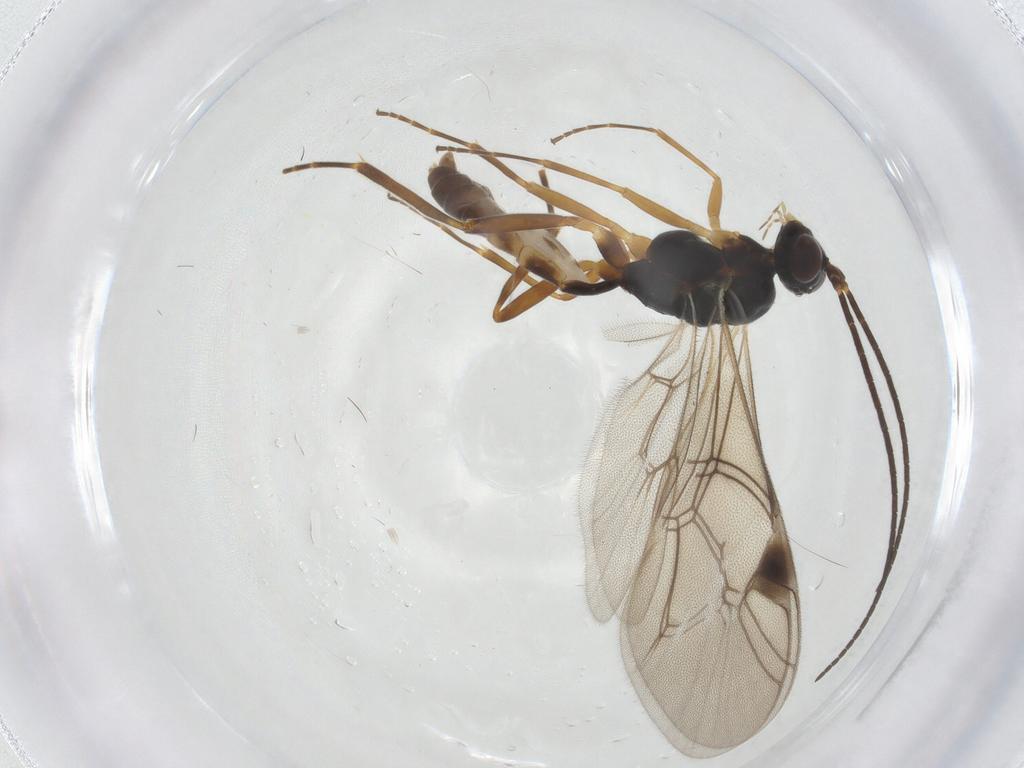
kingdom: Animalia
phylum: Arthropoda
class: Insecta
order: Hymenoptera
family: Ichneumonidae
